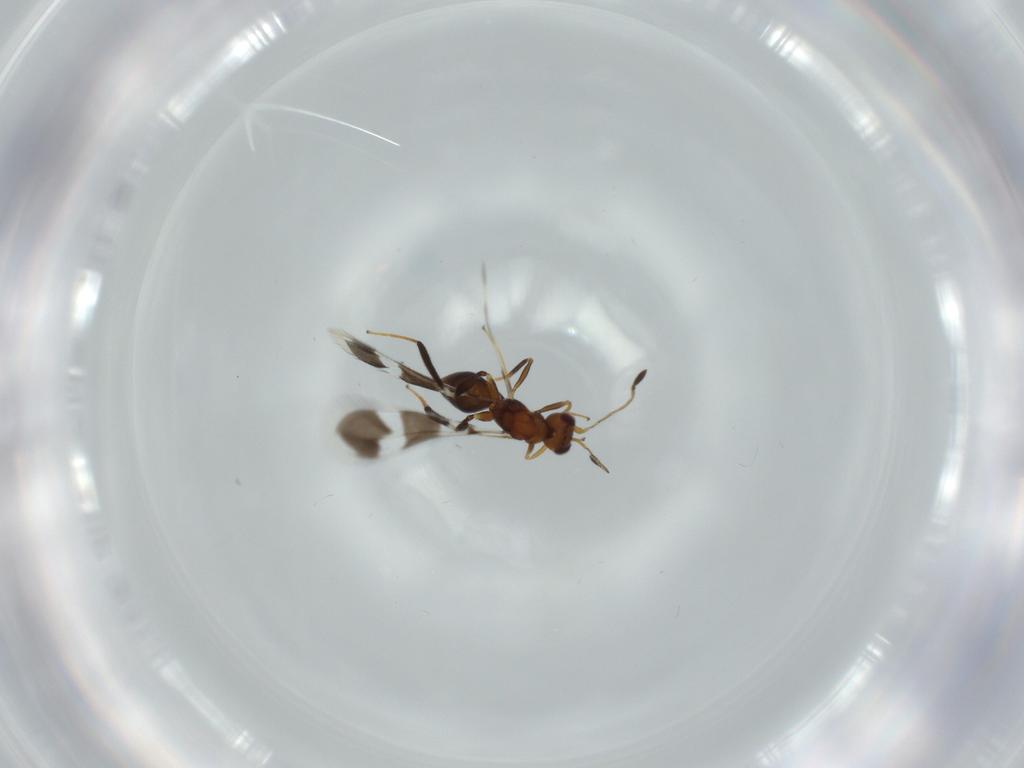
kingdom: Animalia
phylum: Arthropoda
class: Insecta
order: Hymenoptera
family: Mymaridae
